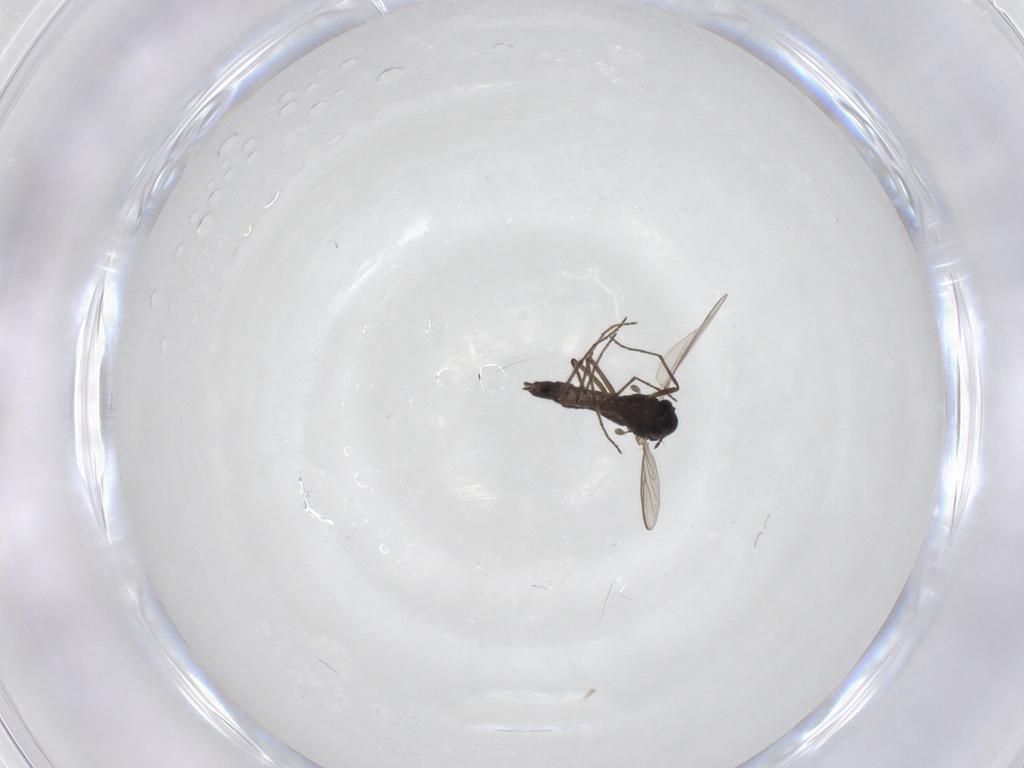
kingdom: Animalia
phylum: Arthropoda
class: Insecta
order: Diptera
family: Chironomidae
